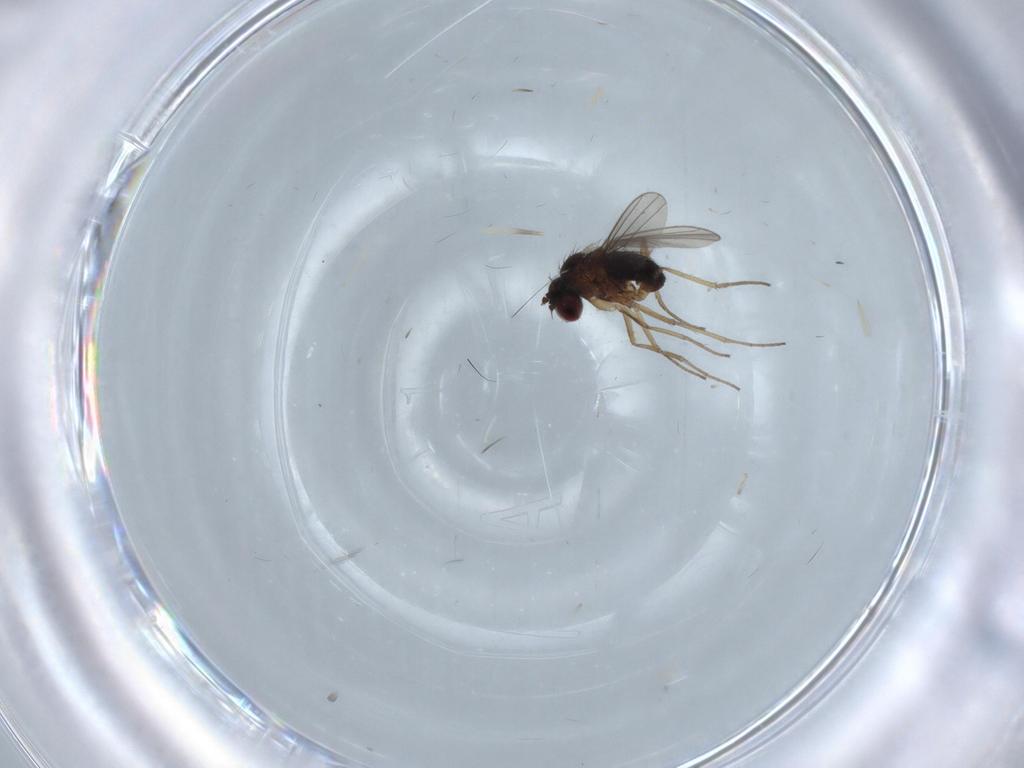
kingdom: Animalia
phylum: Arthropoda
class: Insecta
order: Diptera
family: Dolichopodidae
